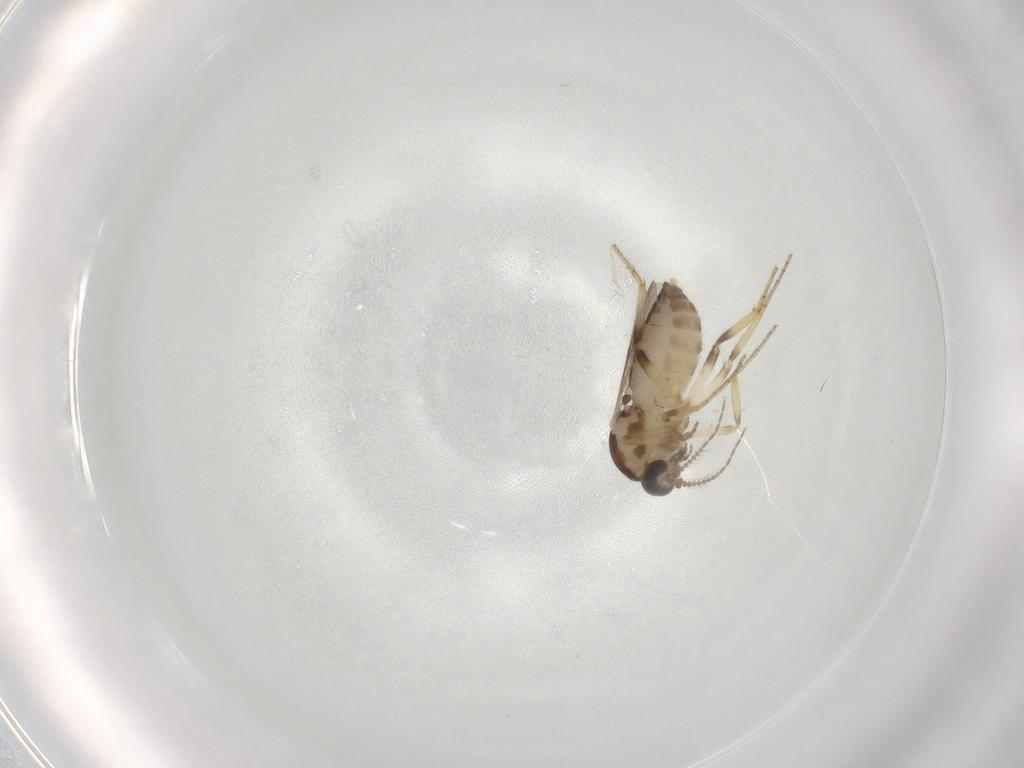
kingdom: Animalia
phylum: Arthropoda
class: Insecta
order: Diptera
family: Ceratopogonidae
